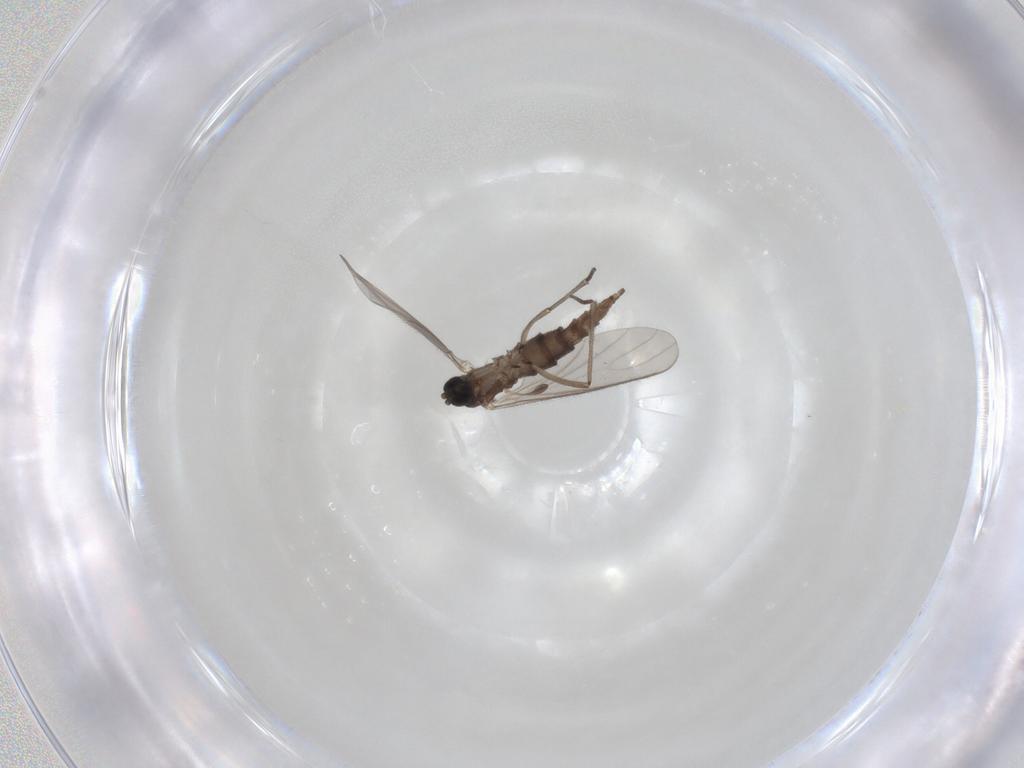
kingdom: Animalia
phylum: Arthropoda
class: Insecta
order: Diptera
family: Sciaridae
